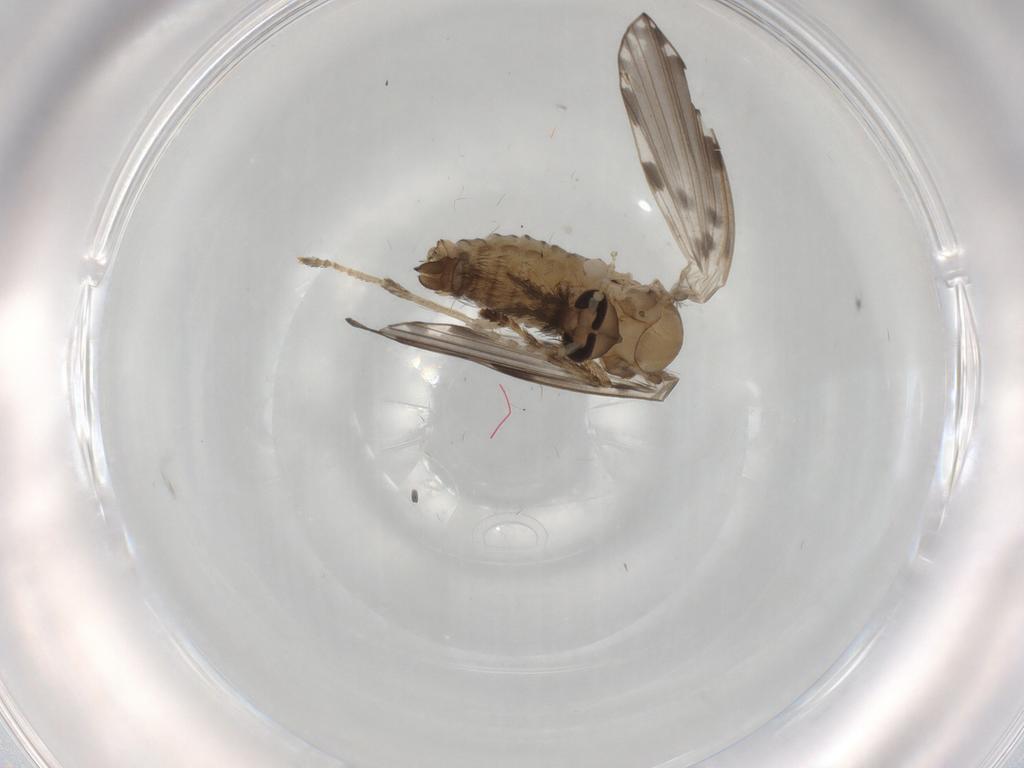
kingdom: Animalia
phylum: Arthropoda
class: Insecta
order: Diptera
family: Psychodidae
